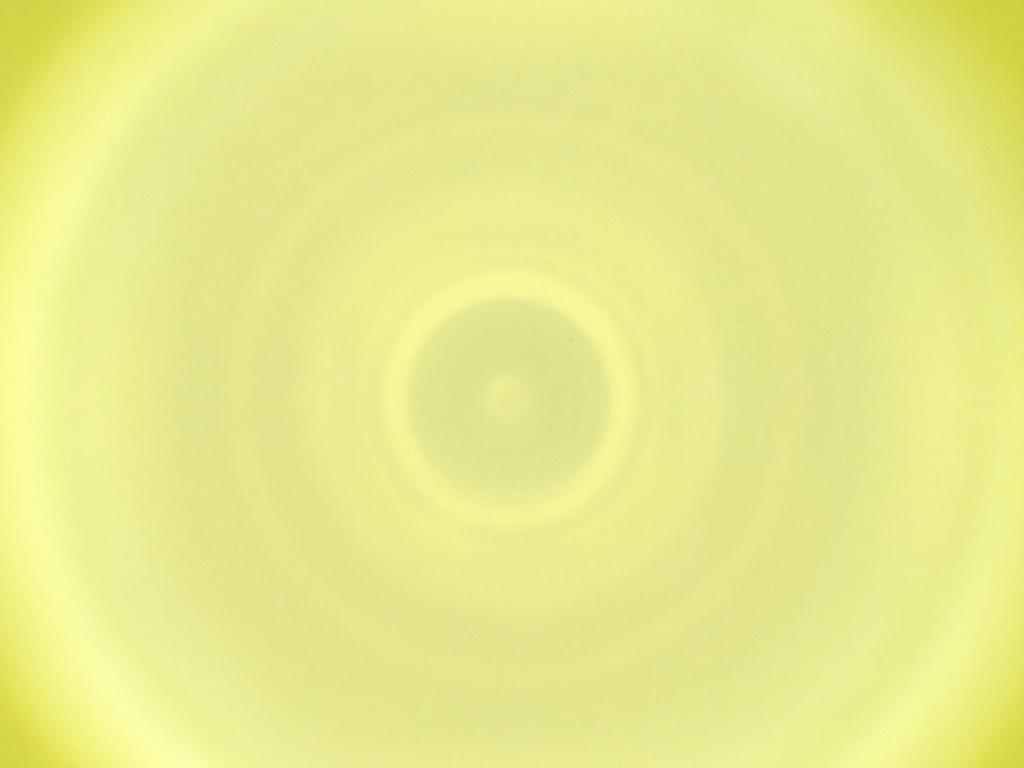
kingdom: Animalia
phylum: Arthropoda
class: Insecta
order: Diptera
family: Cecidomyiidae
